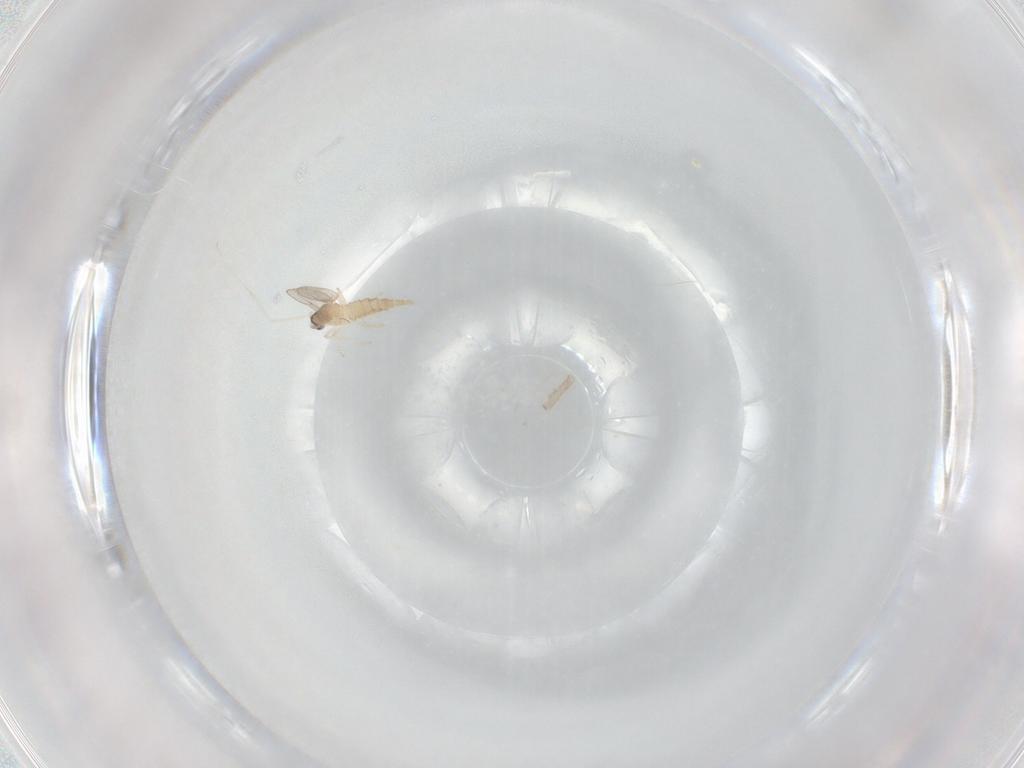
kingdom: Animalia
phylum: Arthropoda
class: Insecta
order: Diptera
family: Cecidomyiidae
